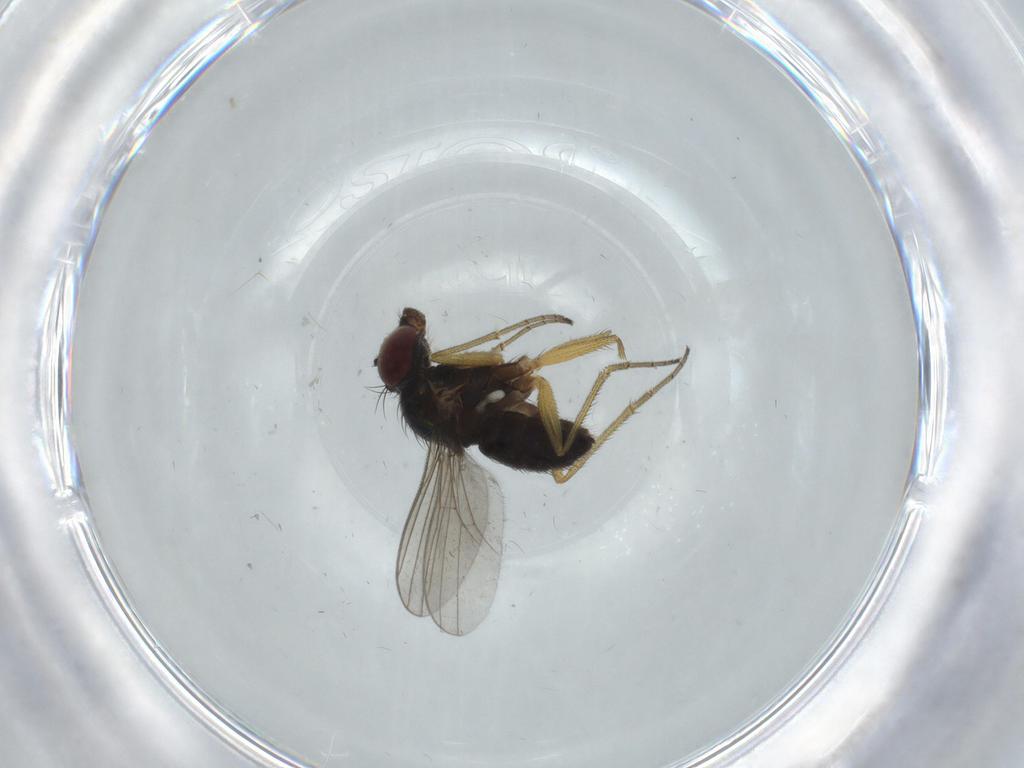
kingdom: Animalia
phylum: Arthropoda
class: Insecta
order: Diptera
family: Dolichopodidae
